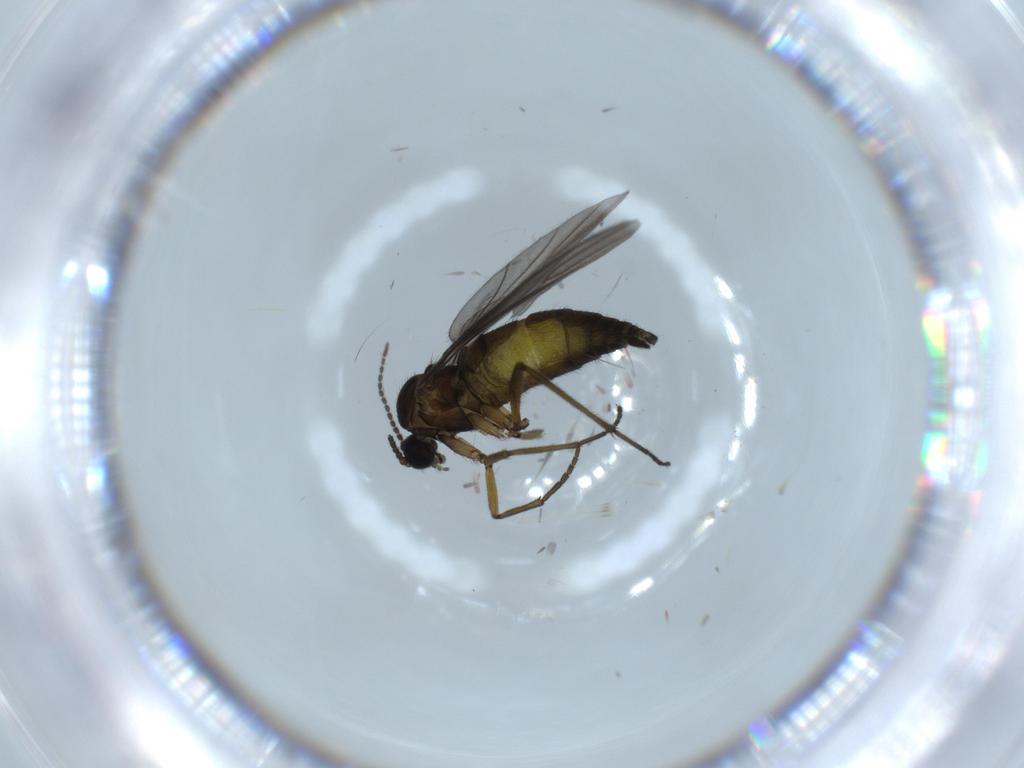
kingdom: Animalia
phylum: Arthropoda
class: Insecta
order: Diptera
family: Sciaridae
